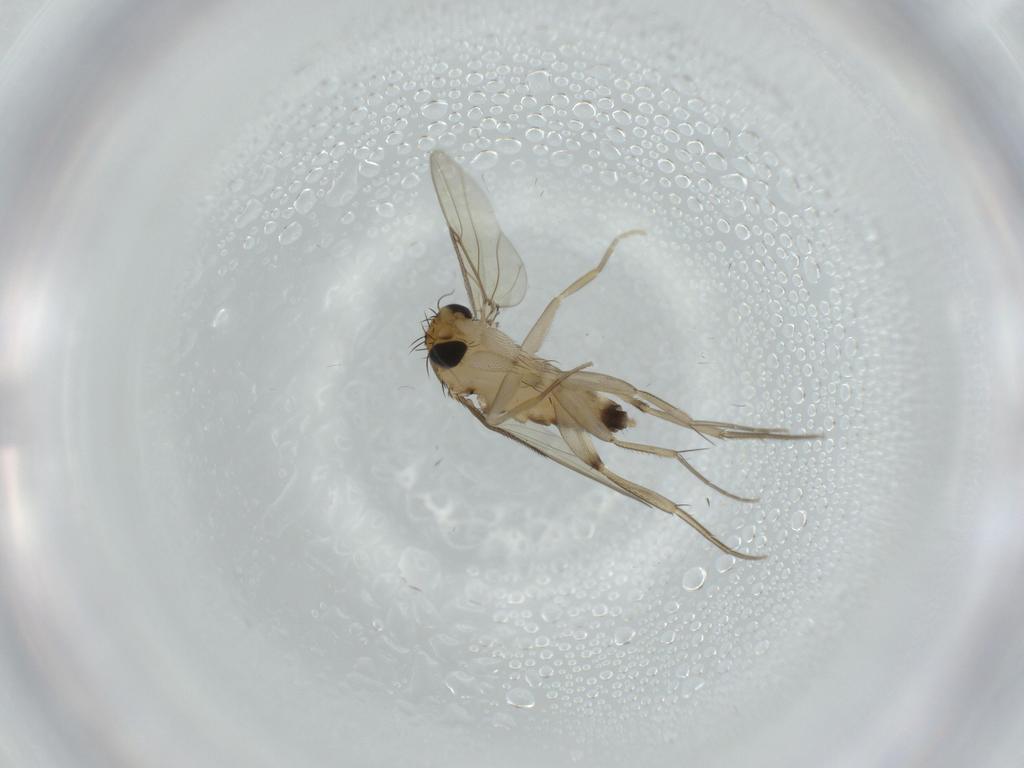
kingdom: Animalia
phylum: Arthropoda
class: Insecta
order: Diptera
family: Phoridae
